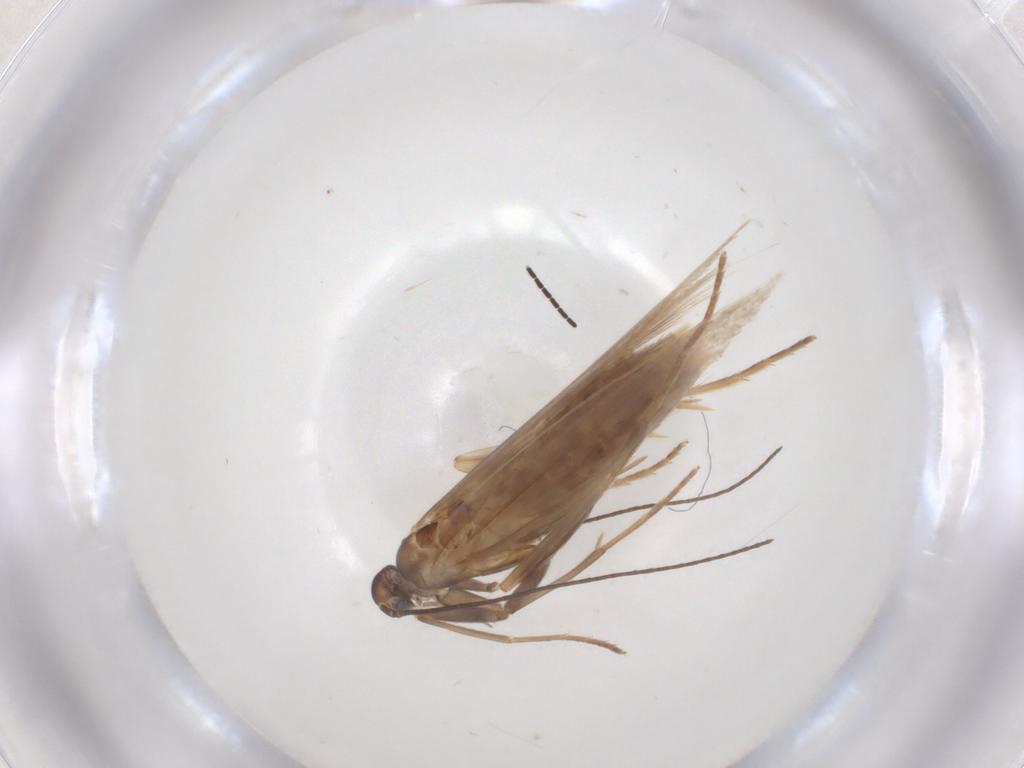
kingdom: Animalia
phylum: Arthropoda
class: Insecta
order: Lepidoptera
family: Coleophoridae
